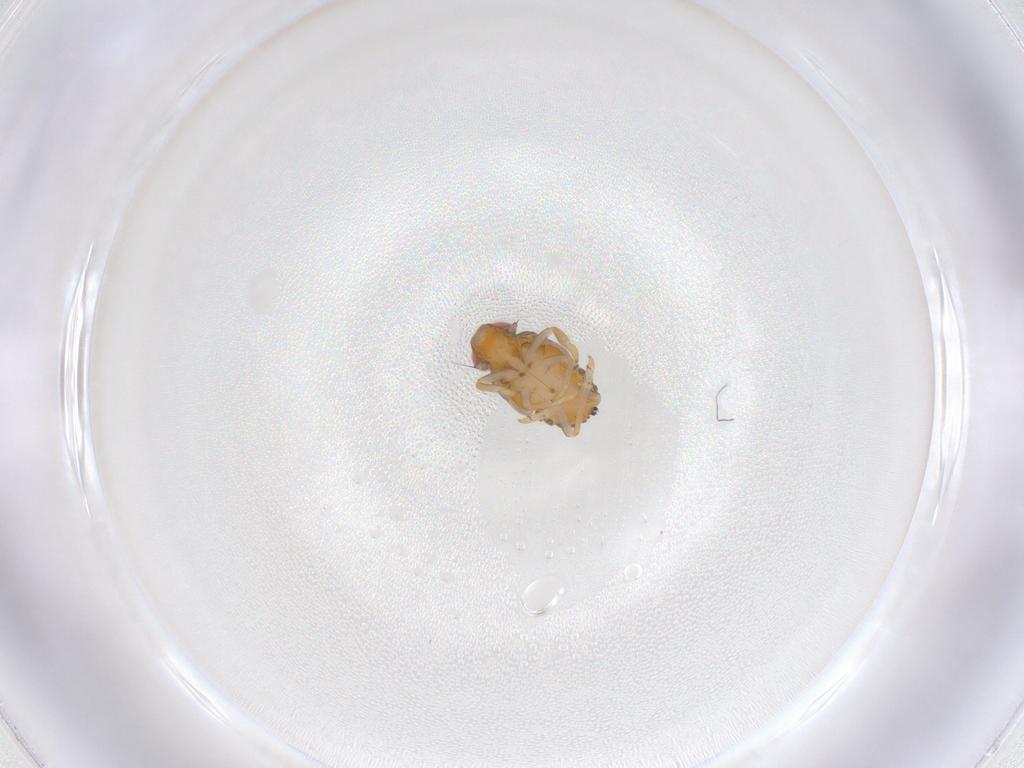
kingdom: Animalia
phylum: Arthropoda
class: Insecta
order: Hemiptera
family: Issidae
